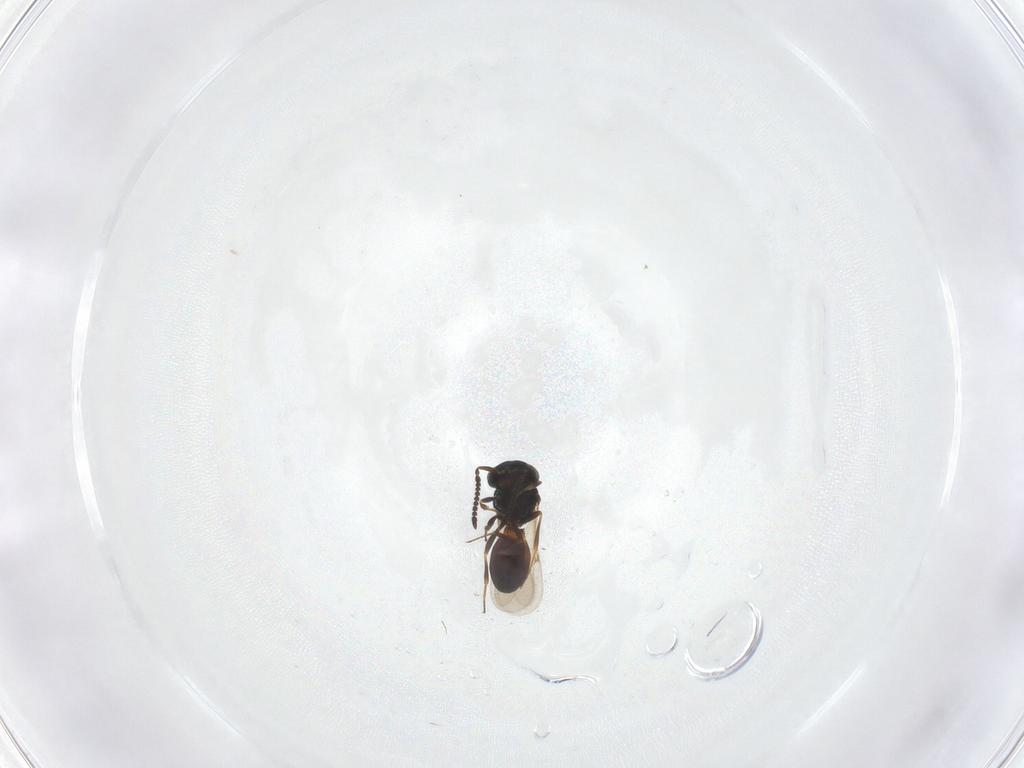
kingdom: Animalia
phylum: Arthropoda
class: Insecta
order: Hymenoptera
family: Scelionidae
